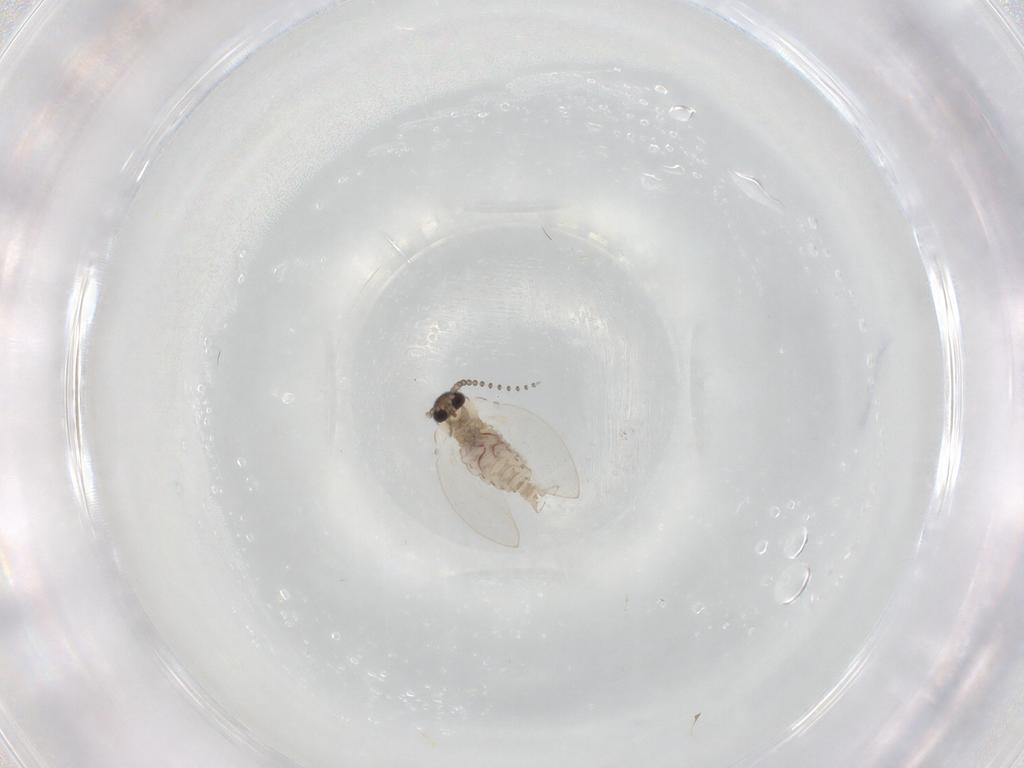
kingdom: Animalia
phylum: Arthropoda
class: Insecta
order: Diptera
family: Psychodidae
